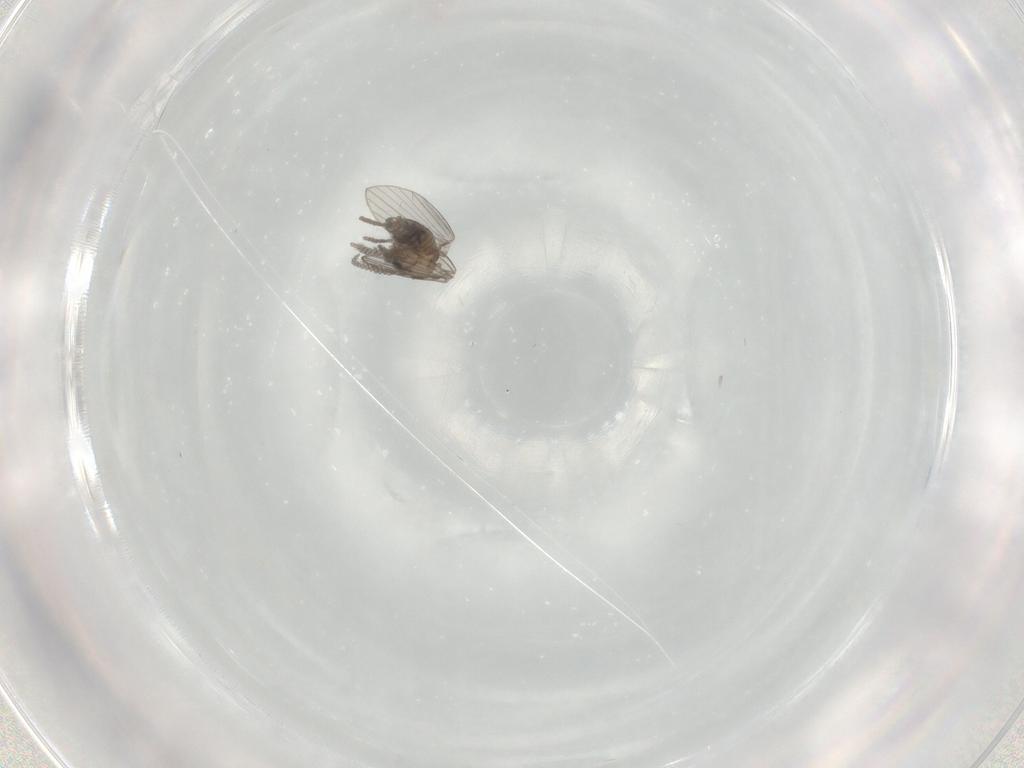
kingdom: Animalia
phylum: Arthropoda
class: Insecta
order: Diptera
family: Psychodidae
